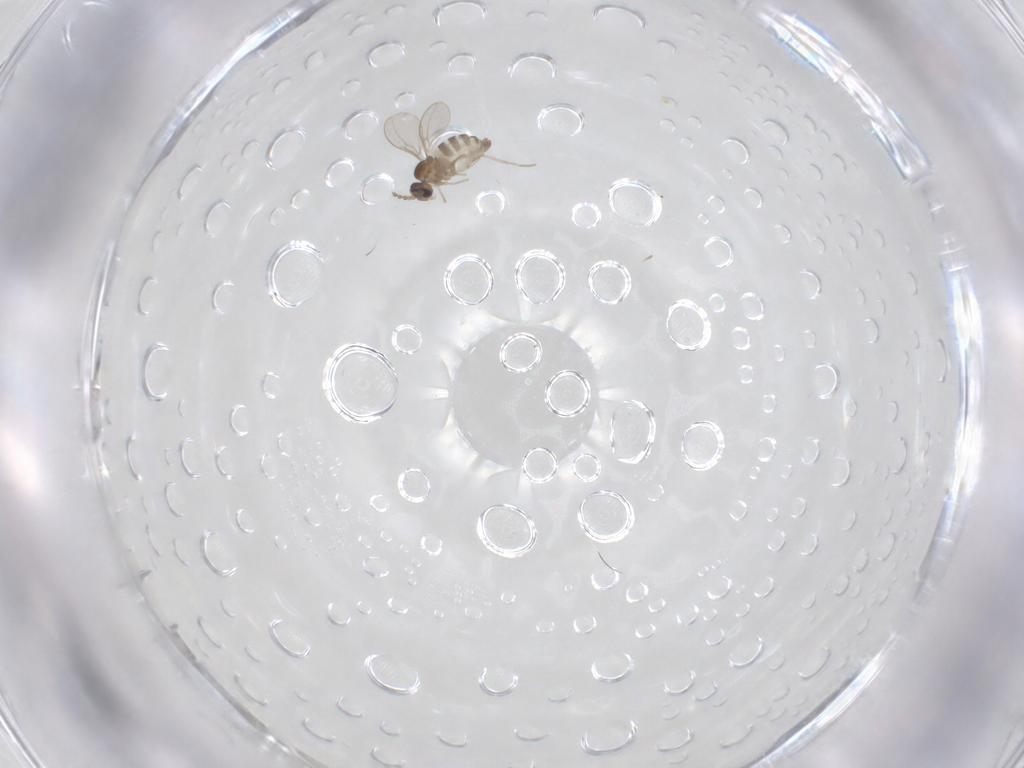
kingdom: Animalia
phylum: Arthropoda
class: Insecta
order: Diptera
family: Cecidomyiidae
